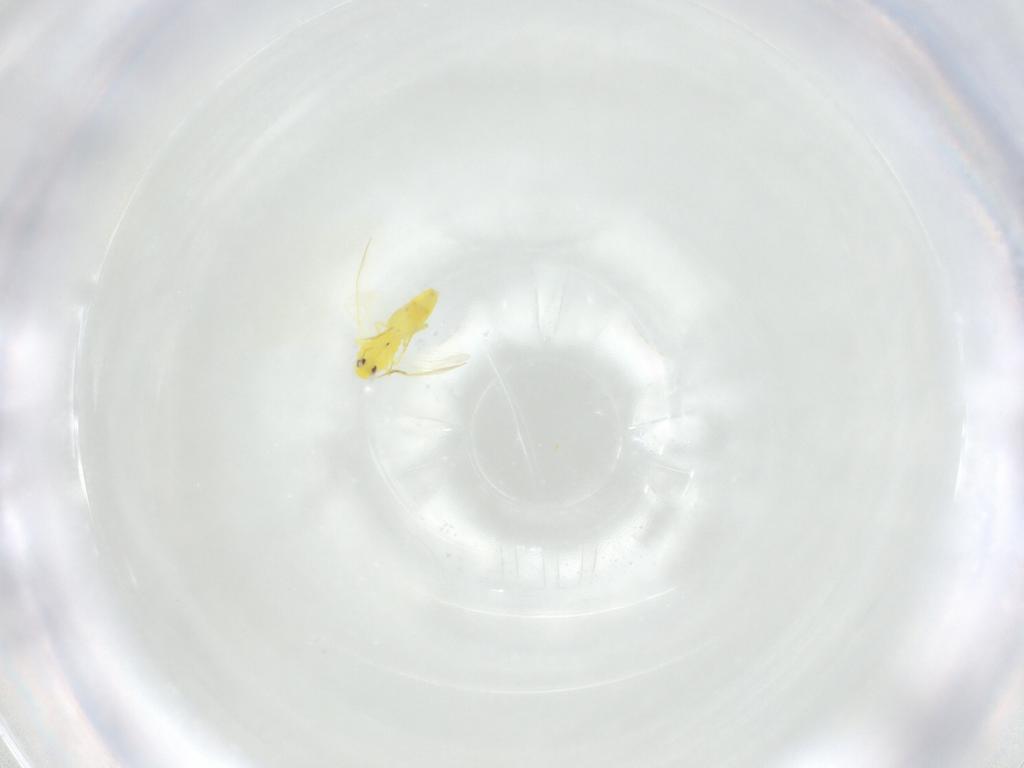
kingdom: Animalia
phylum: Arthropoda
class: Insecta
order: Hemiptera
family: Aleyrodidae
